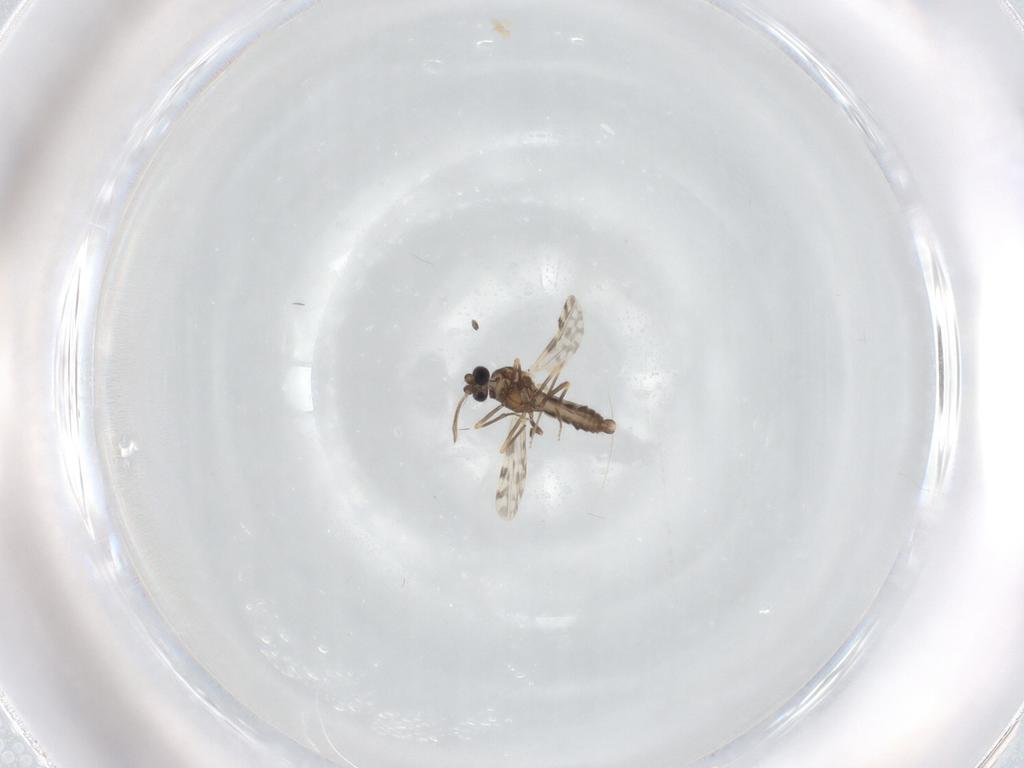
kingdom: Animalia
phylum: Arthropoda
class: Insecta
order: Diptera
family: Ceratopogonidae
